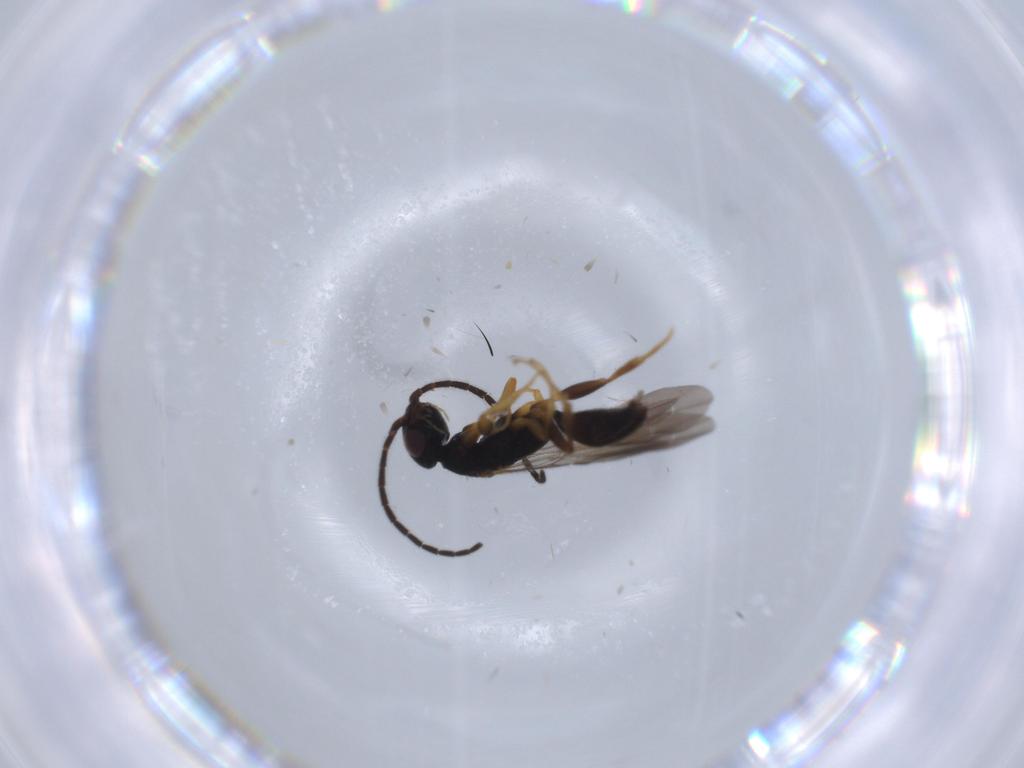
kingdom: Animalia
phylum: Arthropoda
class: Insecta
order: Hymenoptera
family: Bethylidae
